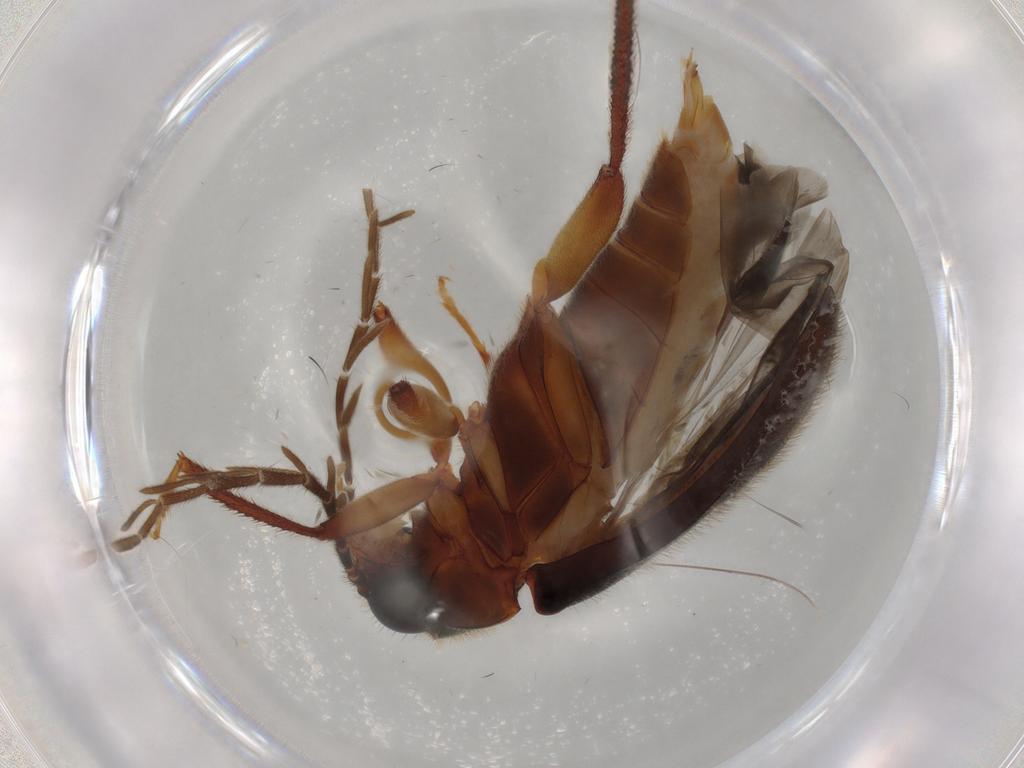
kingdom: Animalia
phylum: Arthropoda
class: Insecta
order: Coleoptera
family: Ptilodactylidae
